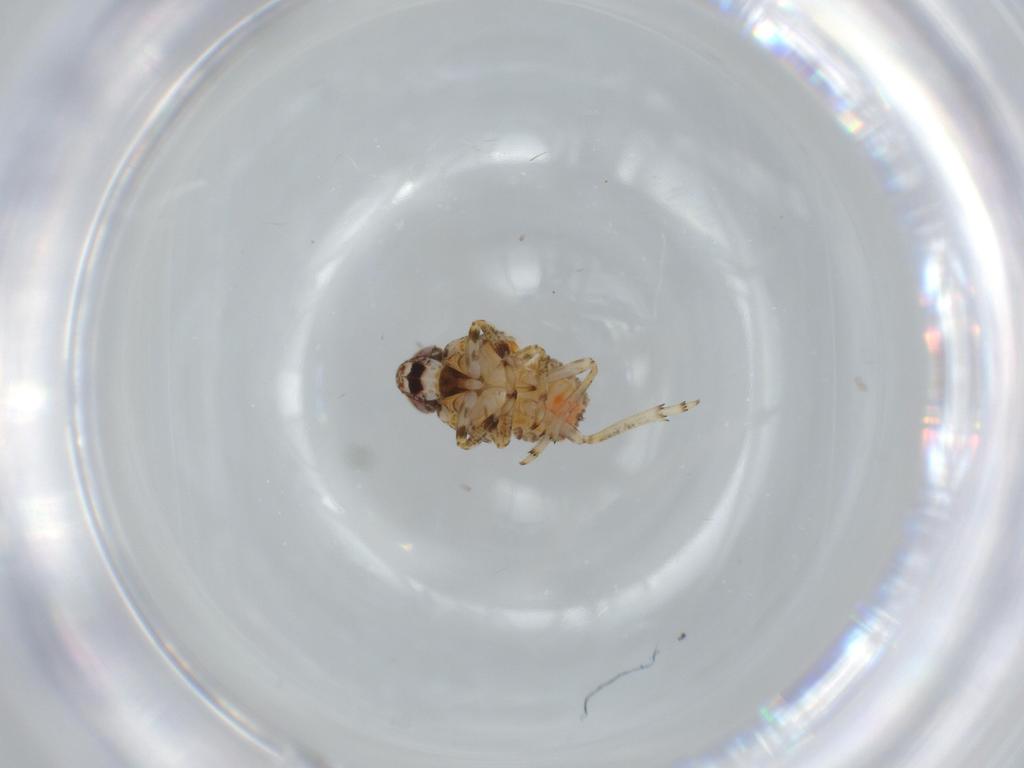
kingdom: Animalia
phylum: Arthropoda
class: Insecta
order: Hemiptera
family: Issidae
